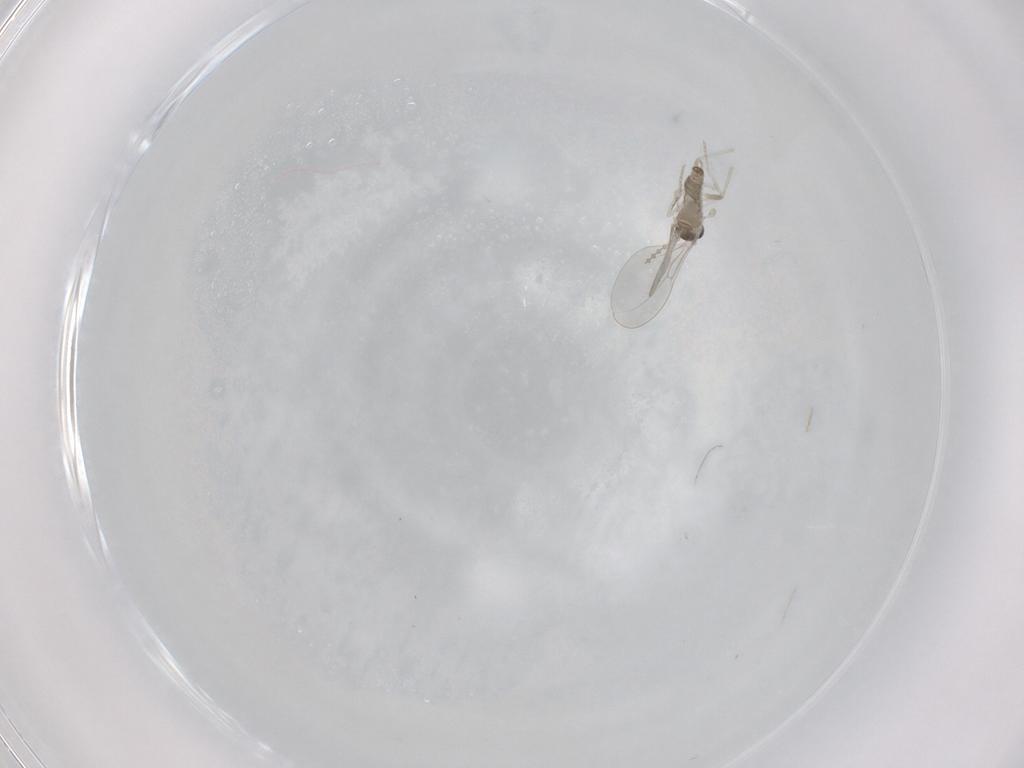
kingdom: Animalia
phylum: Arthropoda
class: Insecta
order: Diptera
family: Cecidomyiidae
